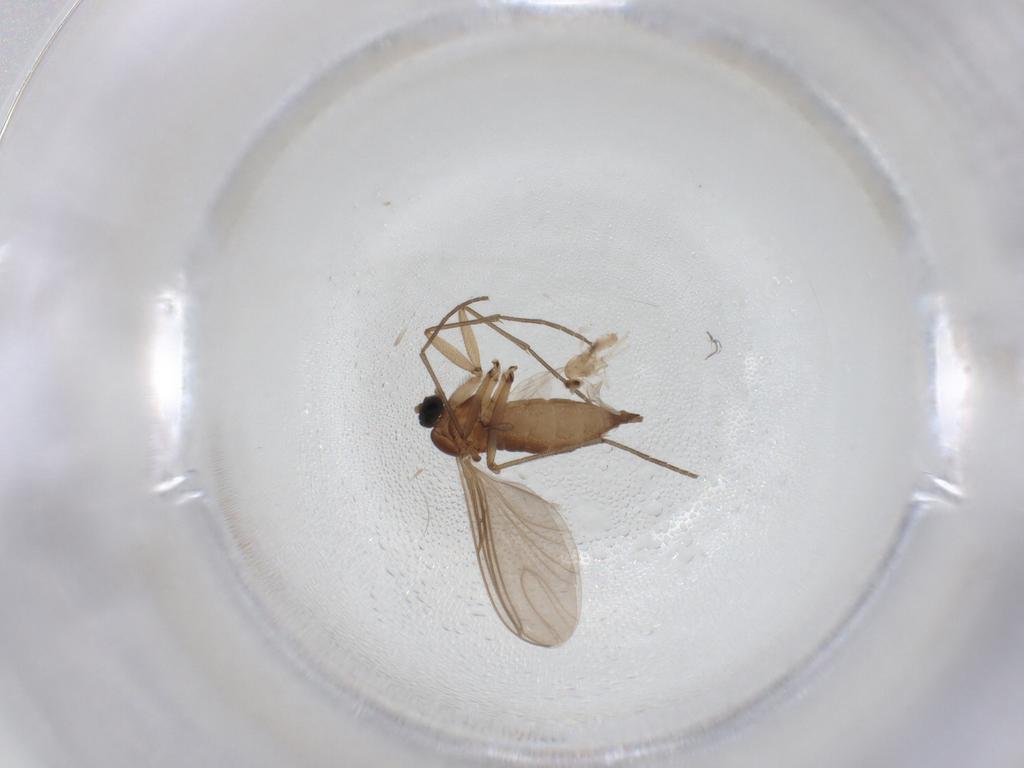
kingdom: Animalia
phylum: Arthropoda
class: Insecta
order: Diptera
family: Sciaridae
